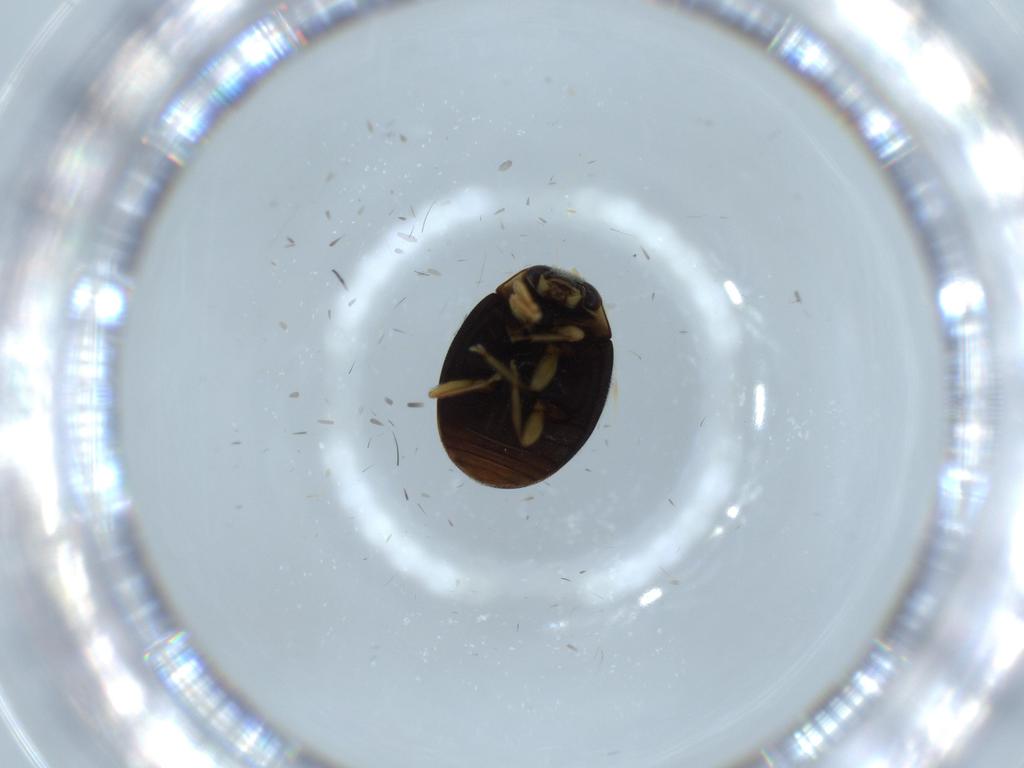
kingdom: Animalia
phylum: Arthropoda
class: Insecta
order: Coleoptera
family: Coccinellidae
